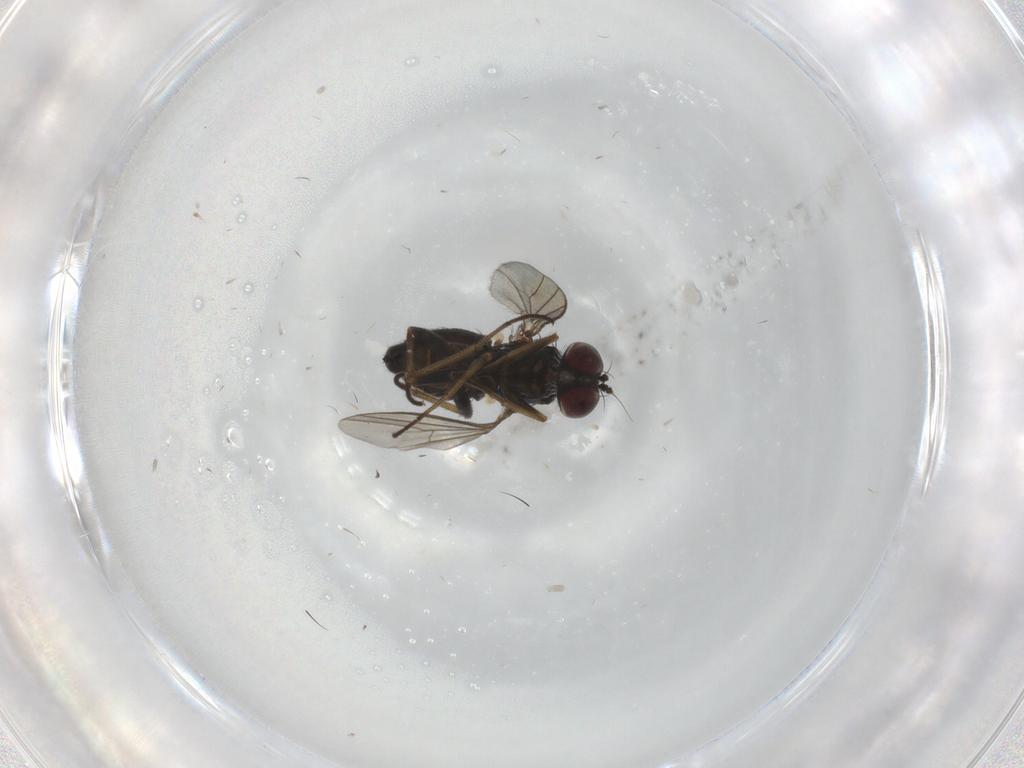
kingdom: Animalia
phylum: Arthropoda
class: Insecta
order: Diptera
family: Dolichopodidae
